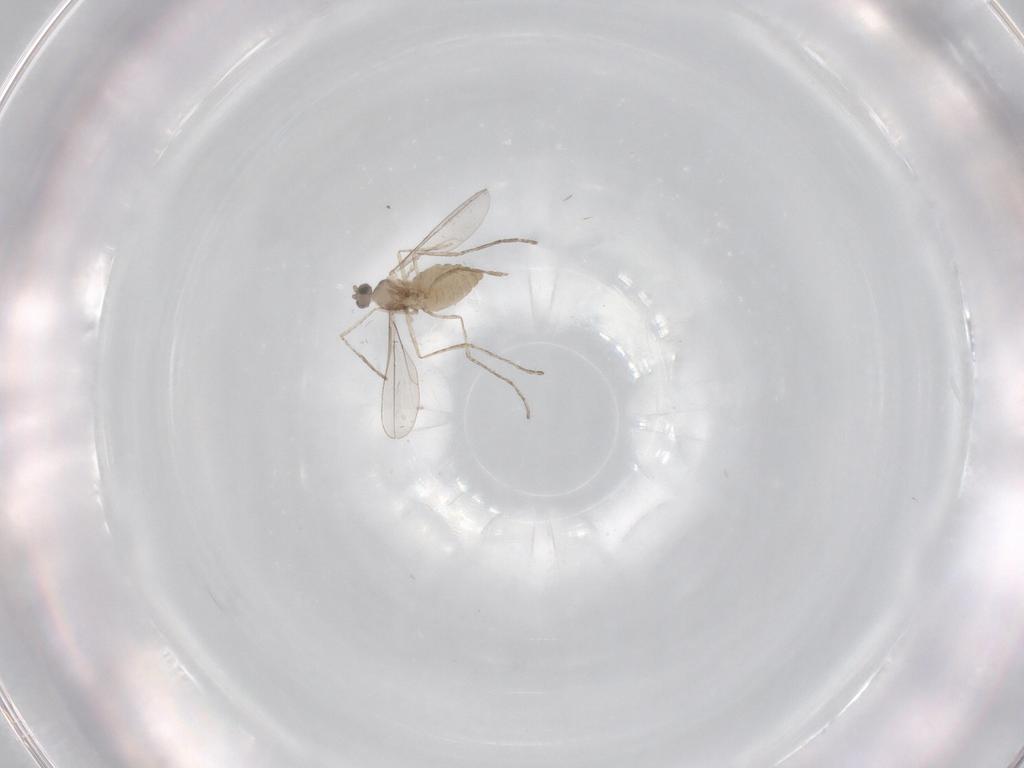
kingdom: Animalia
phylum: Arthropoda
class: Insecta
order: Diptera
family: Cecidomyiidae
